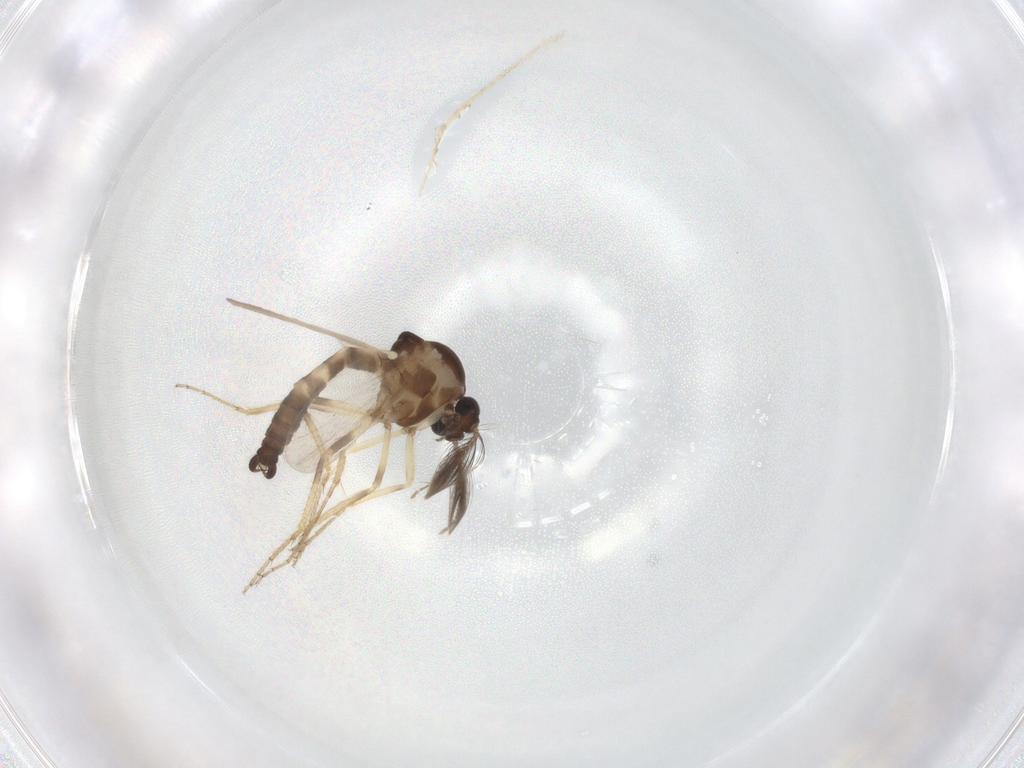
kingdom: Animalia
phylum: Arthropoda
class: Insecta
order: Diptera
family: Ceratopogonidae
